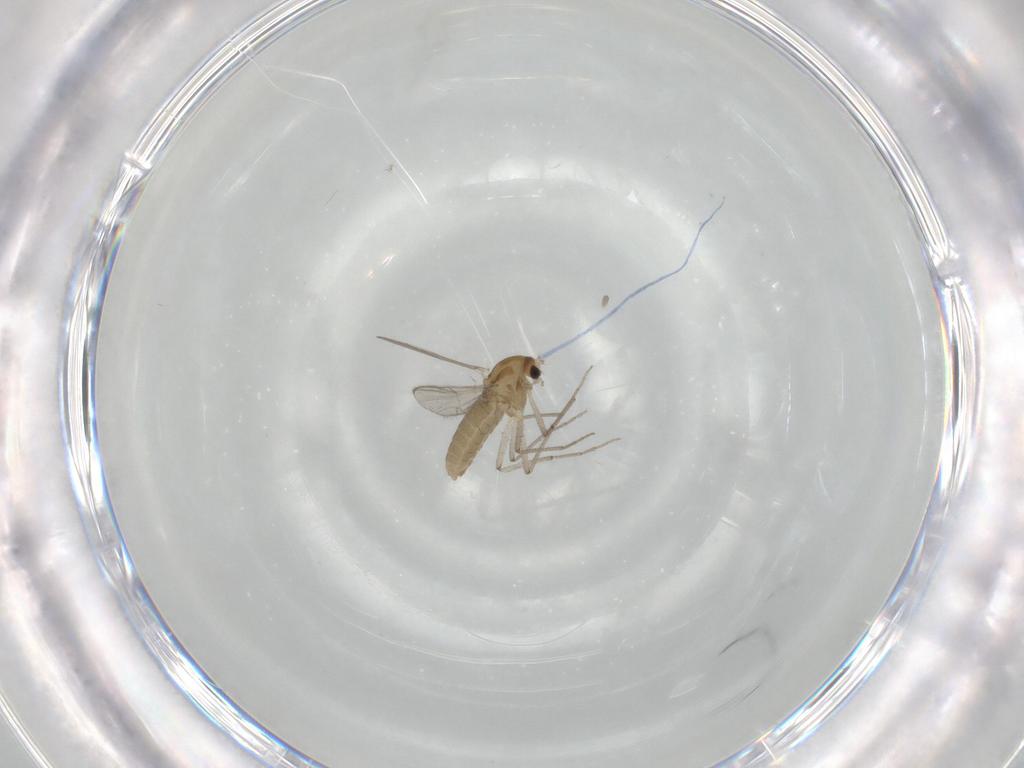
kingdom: Animalia
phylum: Arthropoda
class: Insecta
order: Diptera
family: Chironomidae
